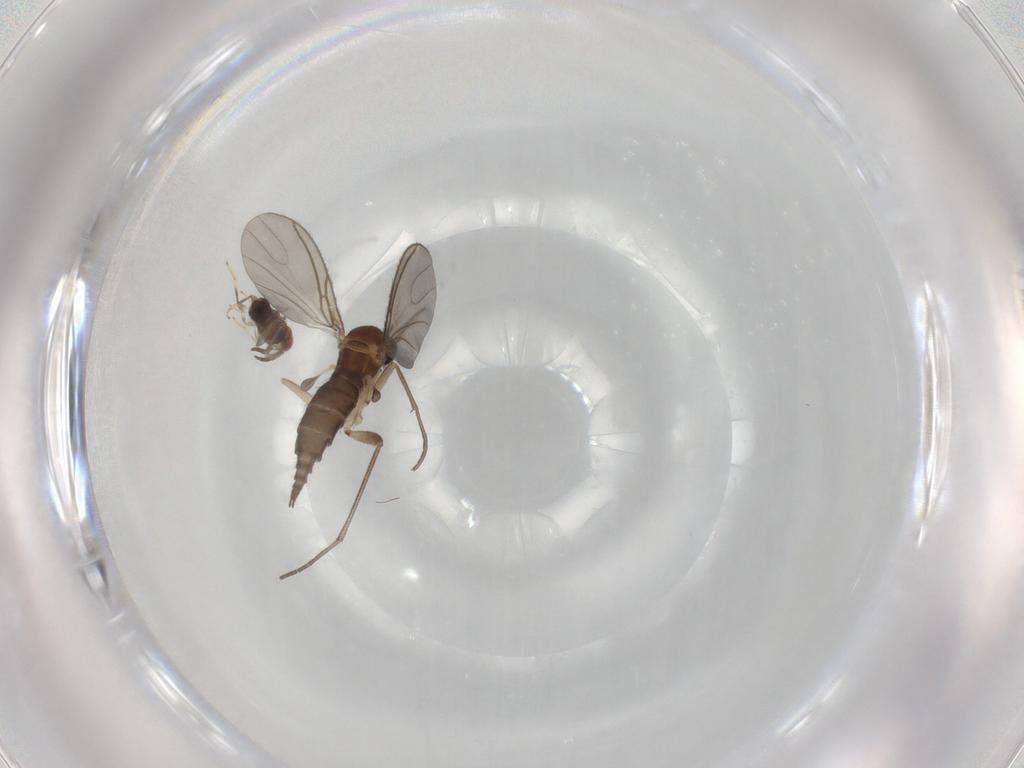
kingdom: Animalia
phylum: Arthropoda
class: Insecta
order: Diptera
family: Sciaridae
